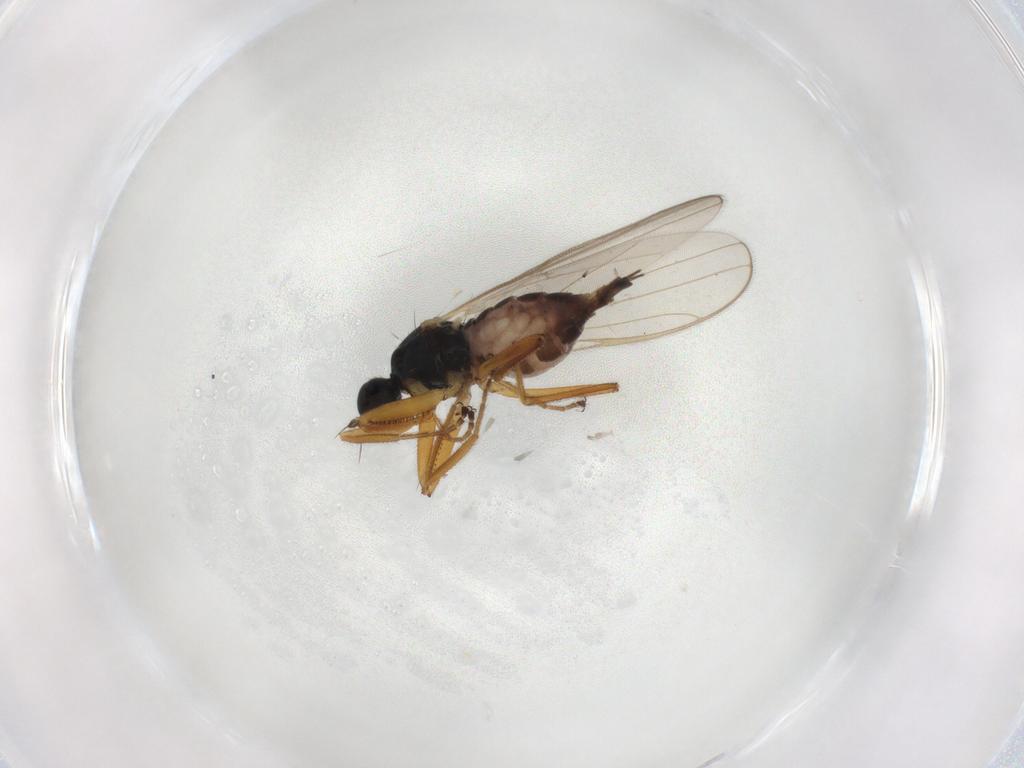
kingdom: Animalia
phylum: Arthropoda
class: Insecta
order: Diptera
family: Hybotidae
